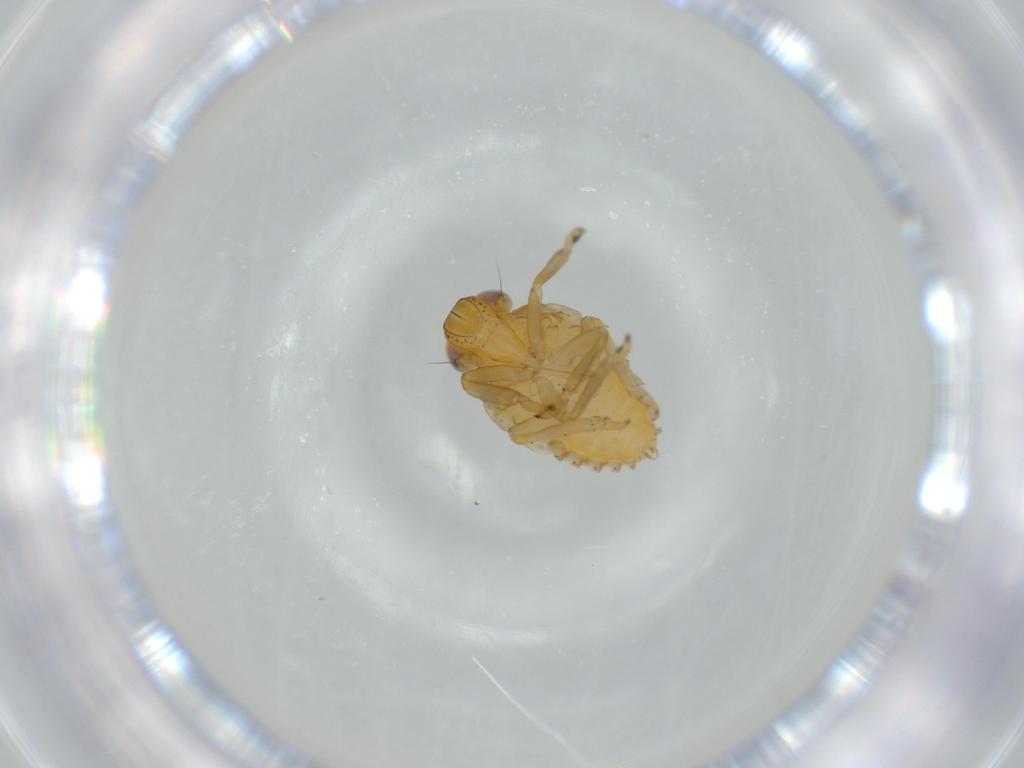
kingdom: Animalia
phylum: Arthropoda
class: Insecta
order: Hemiptera
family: Issidae
